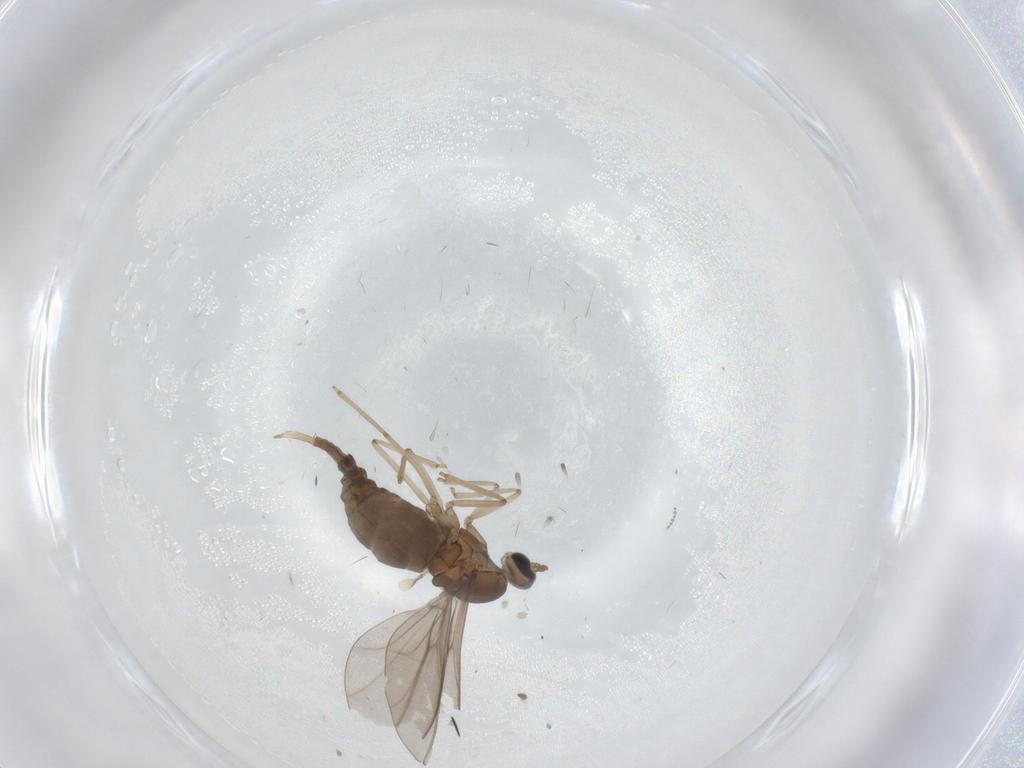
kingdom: Animalia
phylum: Arthropoda
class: Insecta
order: Diptera
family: Cecidomyiidae
